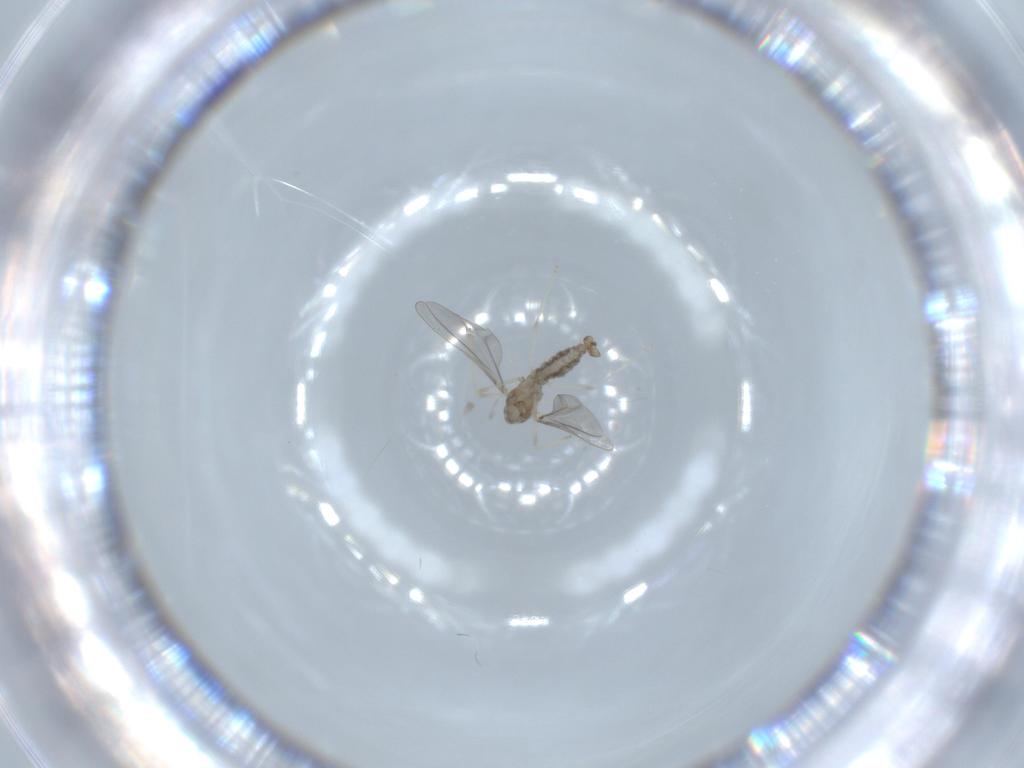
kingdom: Animalia
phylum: Arthropoda
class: Insecta
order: Diptera
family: Cecidomyiidae
